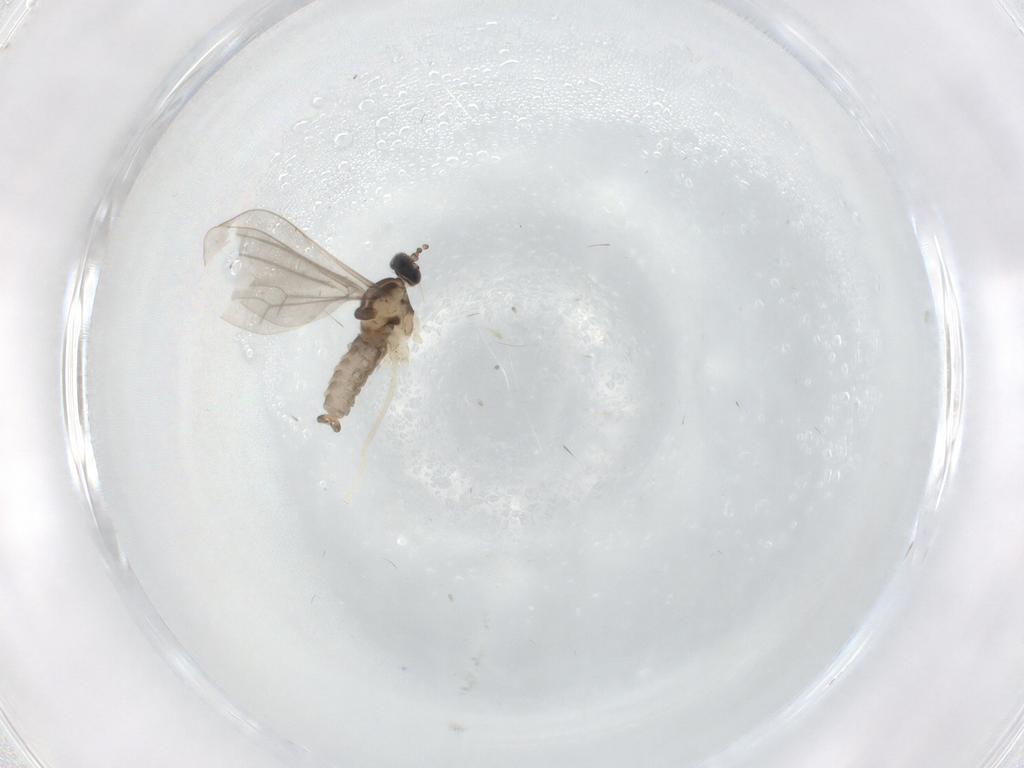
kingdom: Animalia
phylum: Arthropoda
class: Insecta
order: Diptera
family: Cecidomyiidae
